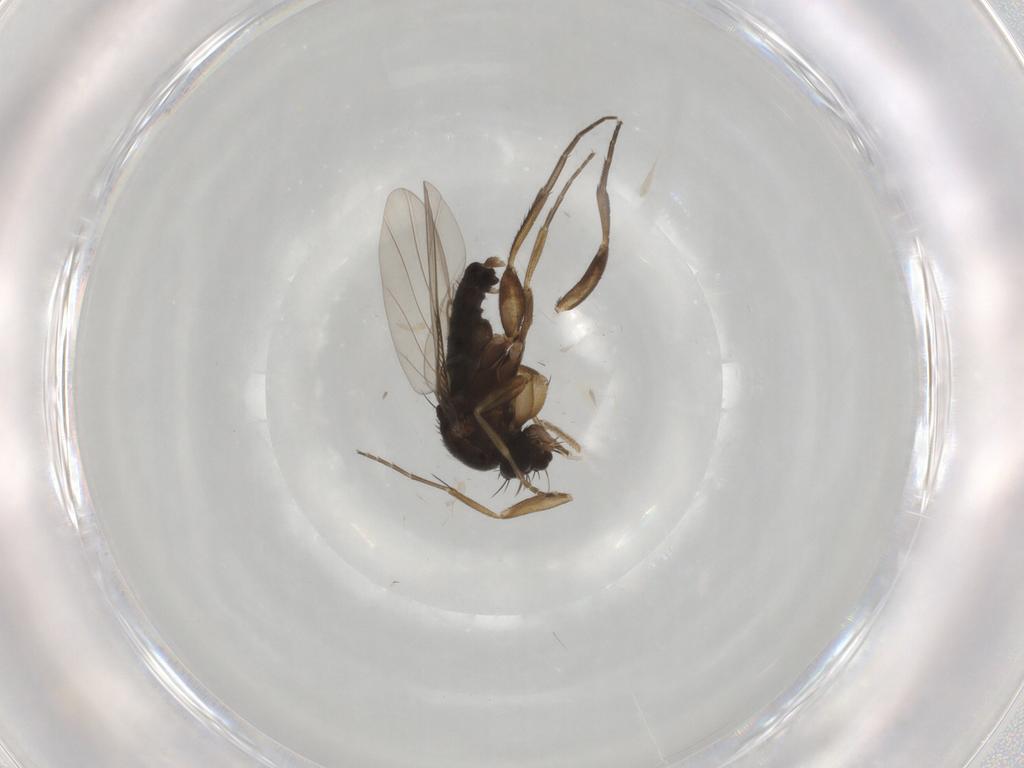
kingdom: Animalia
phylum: Arthropoda
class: Insecta
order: Diptera
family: Phoridae
